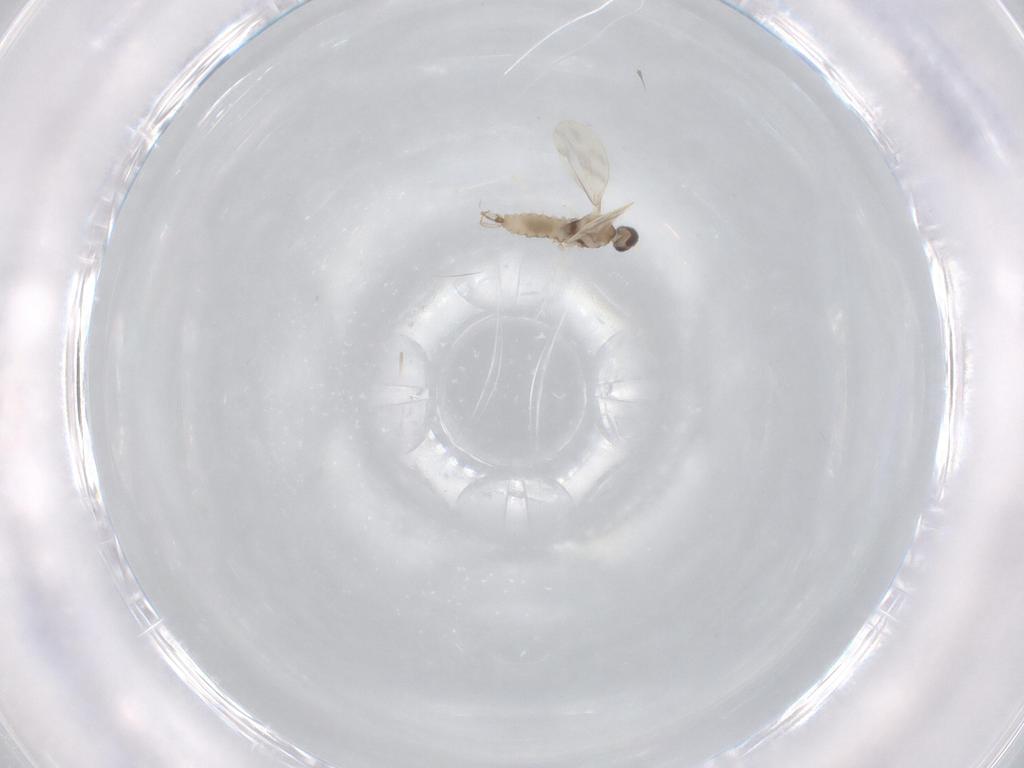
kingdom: Animalia
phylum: Arthropoda
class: Insecta
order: Diptera
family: Cecidomyiidae
